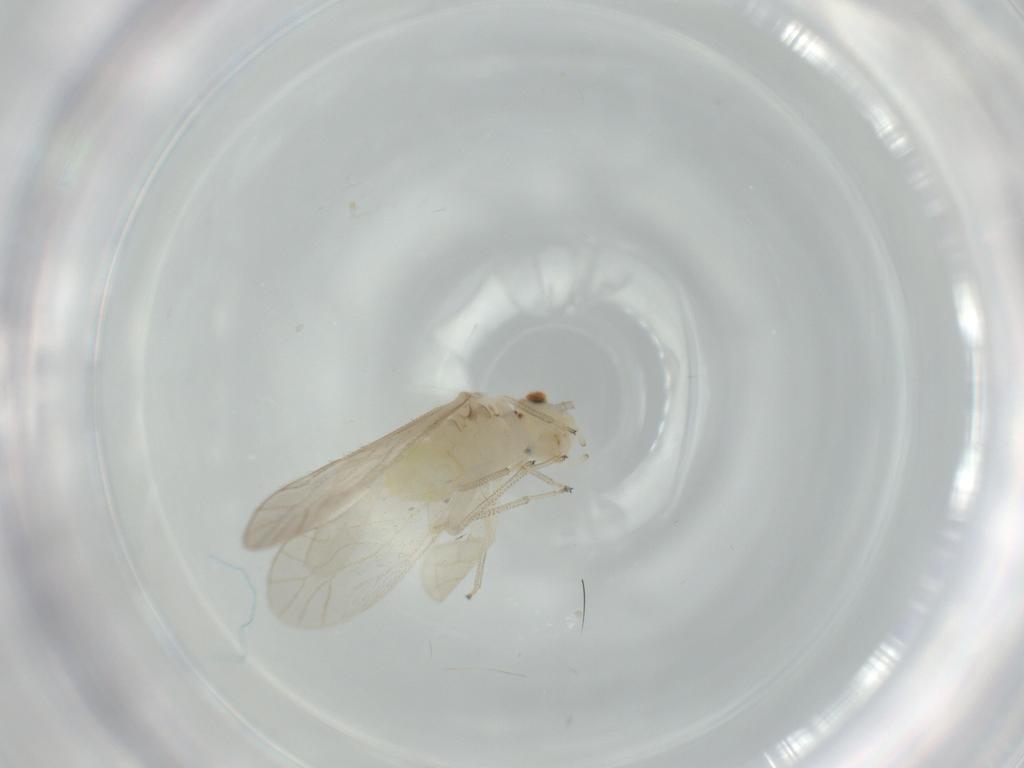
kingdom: Animalia
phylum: Arthropoda
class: Insecta
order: Psocodea
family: Caeciliusidae
